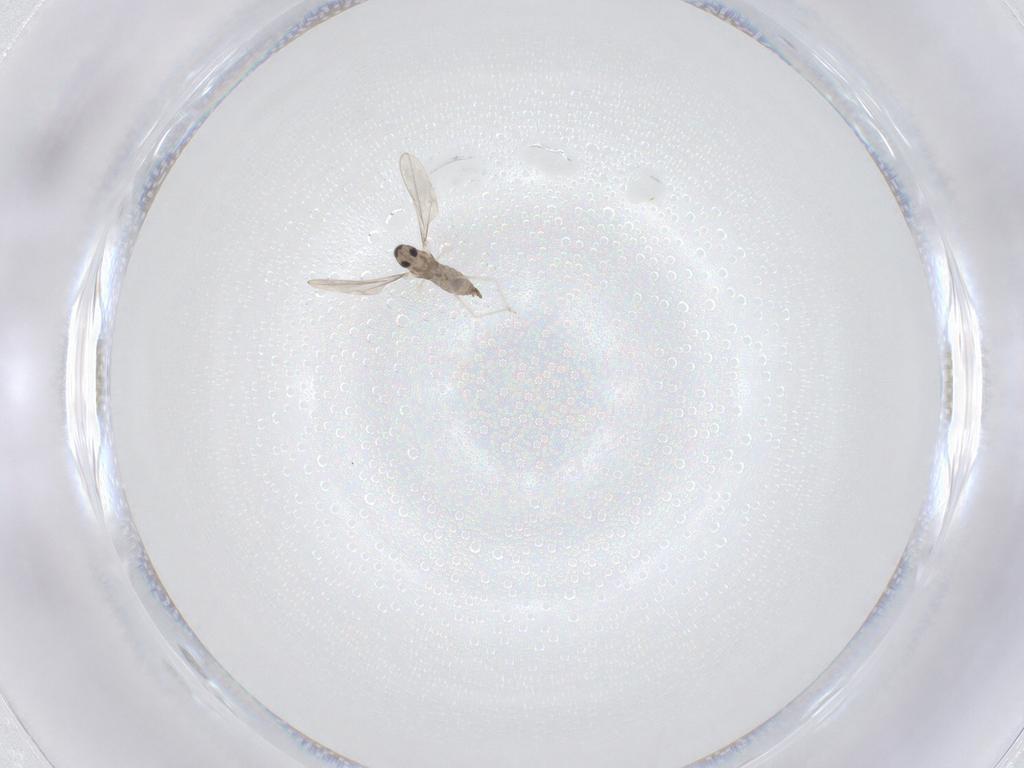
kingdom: Animalia
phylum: Arthropoda
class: Insecta
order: Diptera
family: Cecidomyiidae
